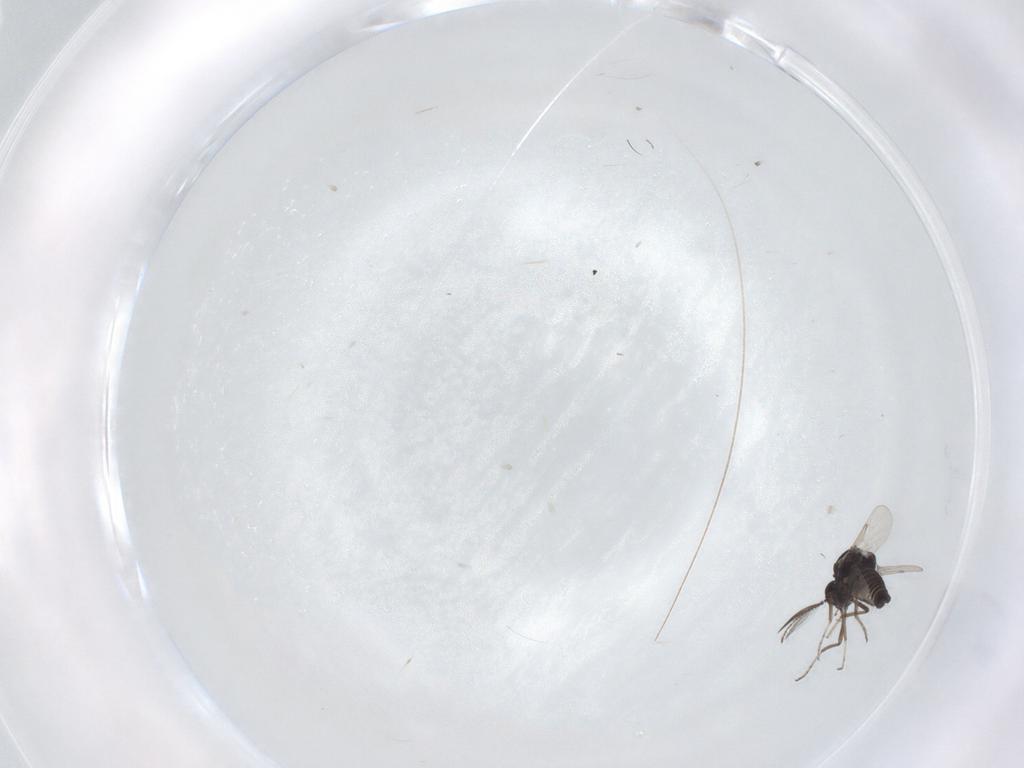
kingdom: Animalia
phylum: Arthropoda
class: Insecta
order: Diptera
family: Ceratopogonidae
